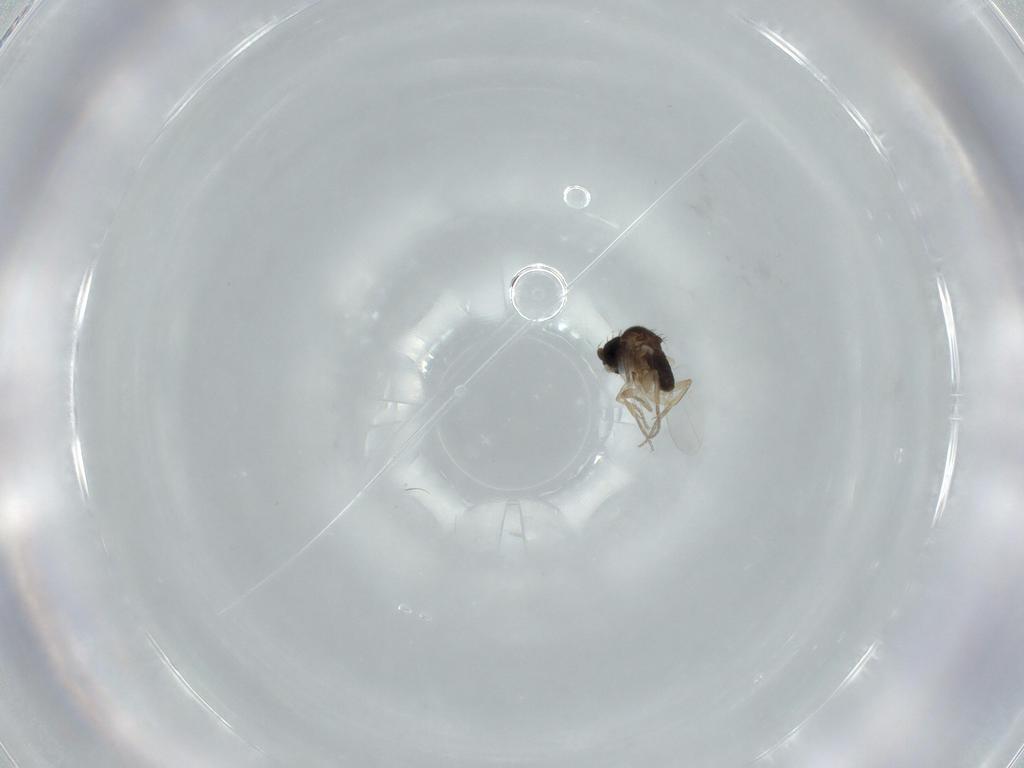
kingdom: Animalia
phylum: Arthropoda
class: Insecta
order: Diptera
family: Phoridae
